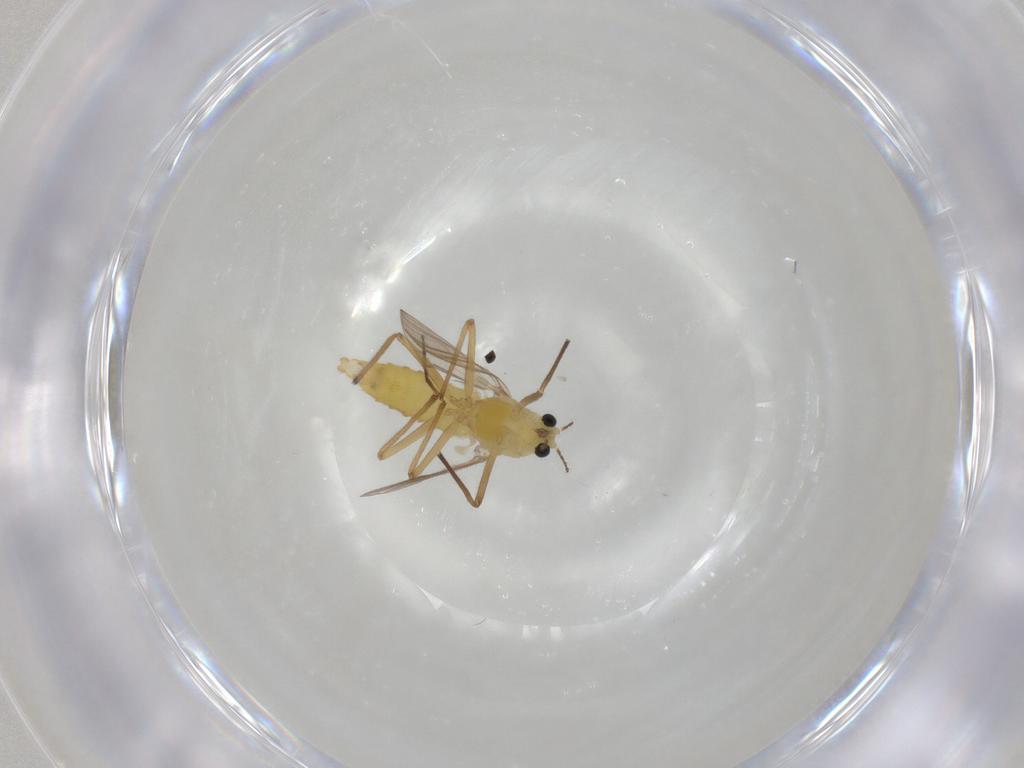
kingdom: Animalia
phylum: Arthropoda
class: Insecta
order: Diptera
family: Chironomidae
